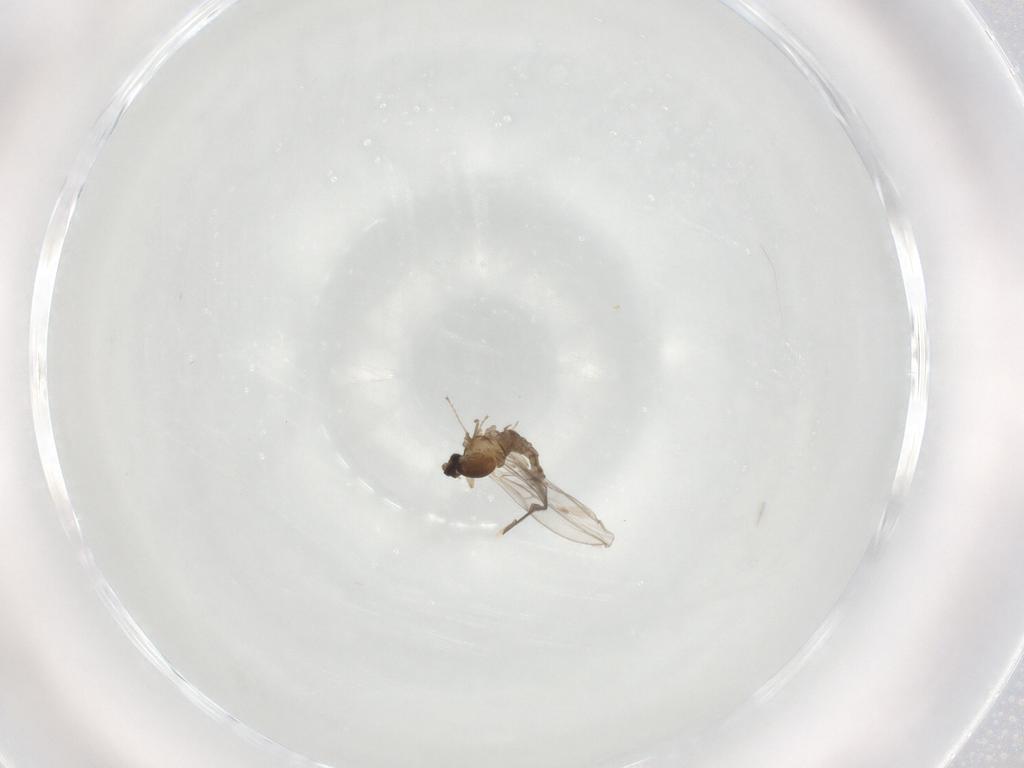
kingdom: Animalia
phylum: Arthropoda
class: Insecta
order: Diptera
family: Cecidomyiidae
